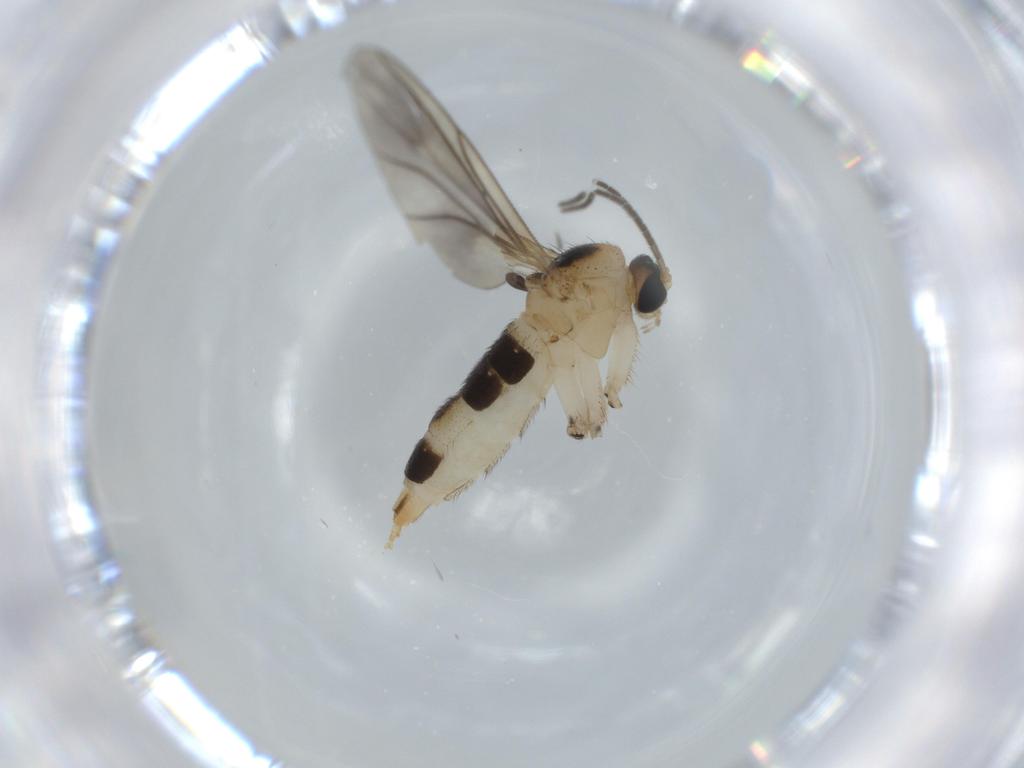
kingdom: Animalia
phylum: Arthropoda
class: Insecta
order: Diptera
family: Sciaridae
